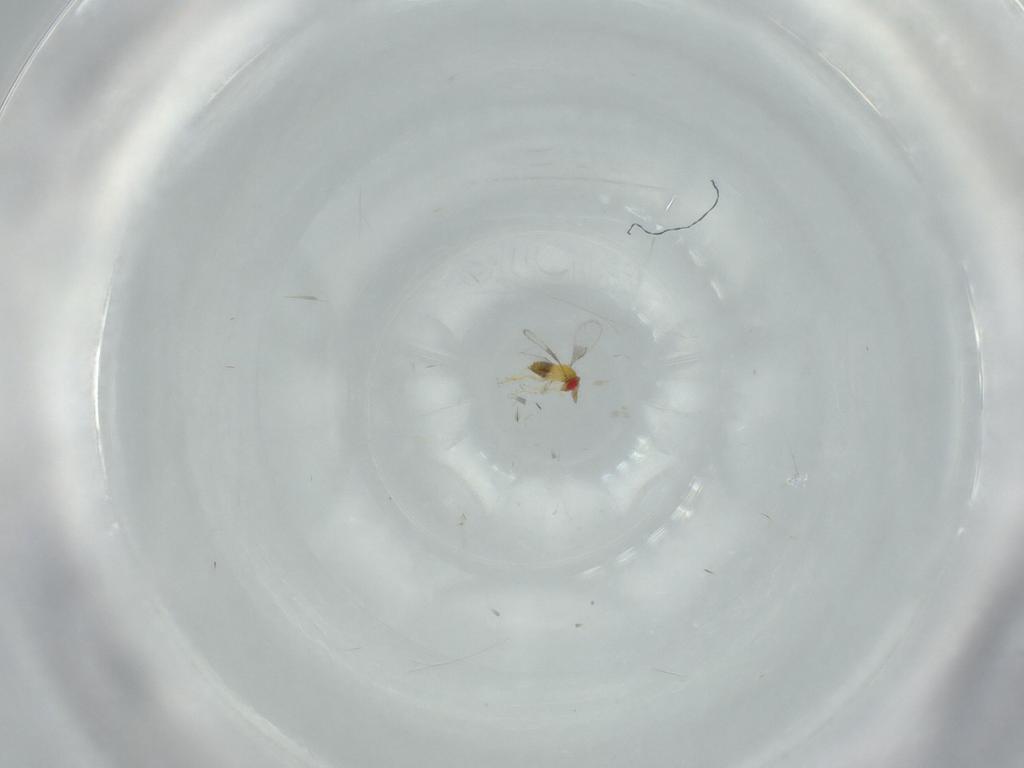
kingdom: Animalia
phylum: Arthropoda
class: Insecta
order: Hymenoptera
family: Trichogrammatidae
